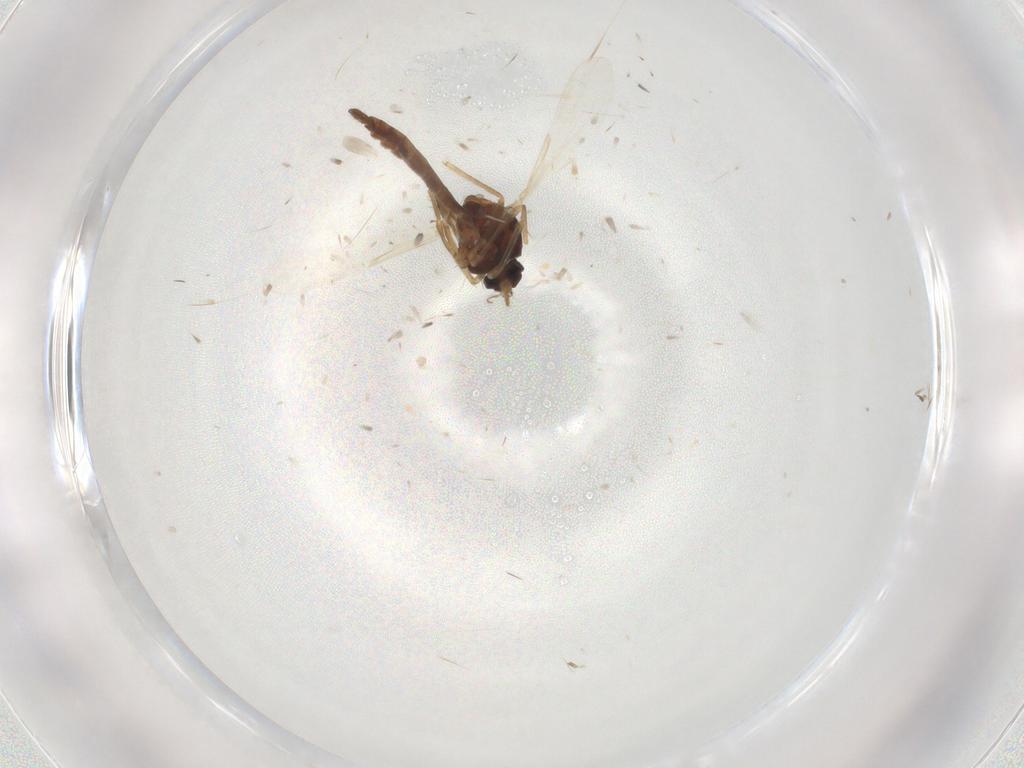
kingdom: Animalia
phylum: Arthropoda
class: Insecta
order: Diptera
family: Ceratopogonidae
